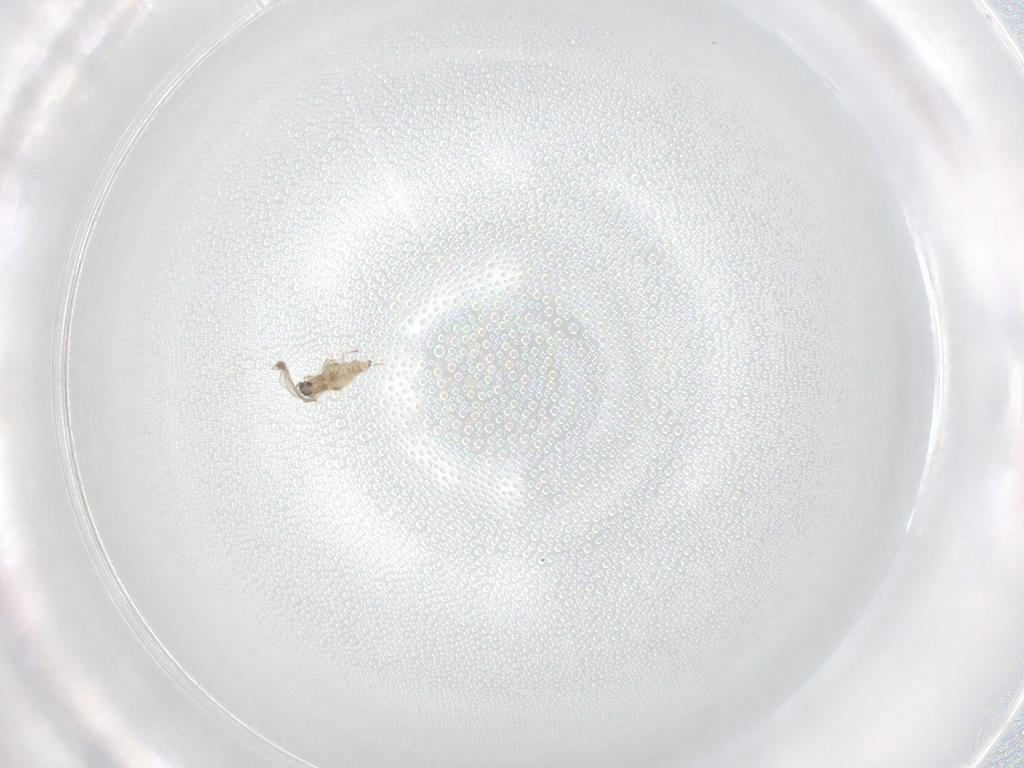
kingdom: Animalia
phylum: Arthropoda
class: Insecta
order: Diptera
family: Cecidomyiidae
